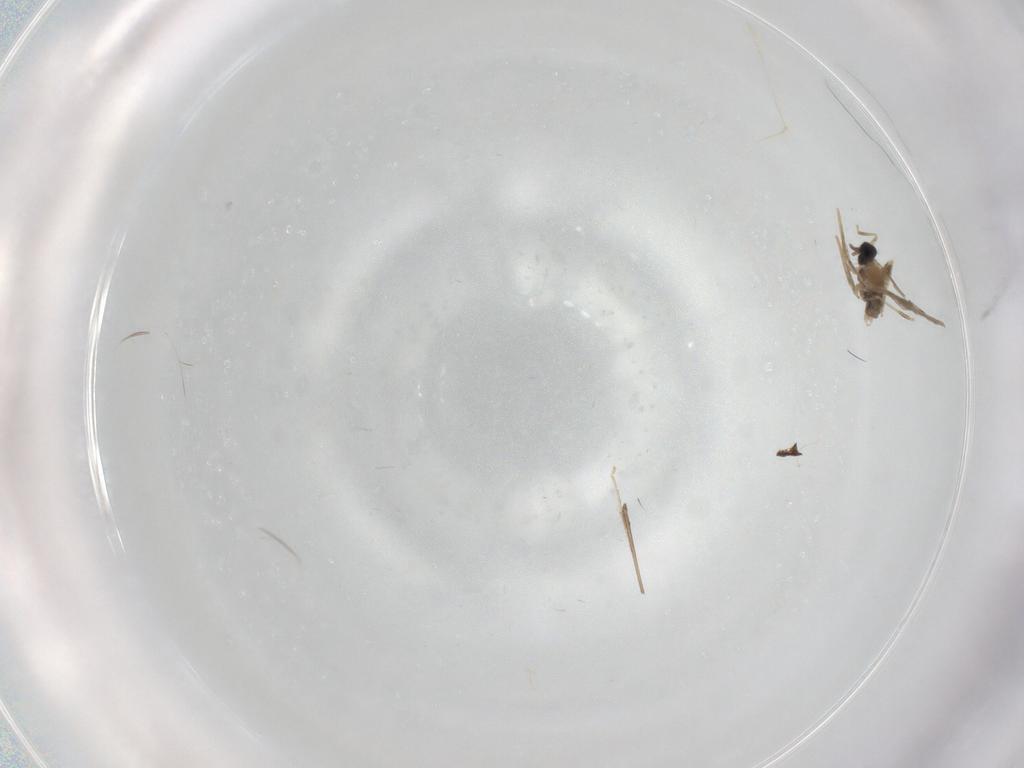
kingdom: Animalia
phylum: Arthropoda
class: Insecta
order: Diptera
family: Cecidomyiidae
